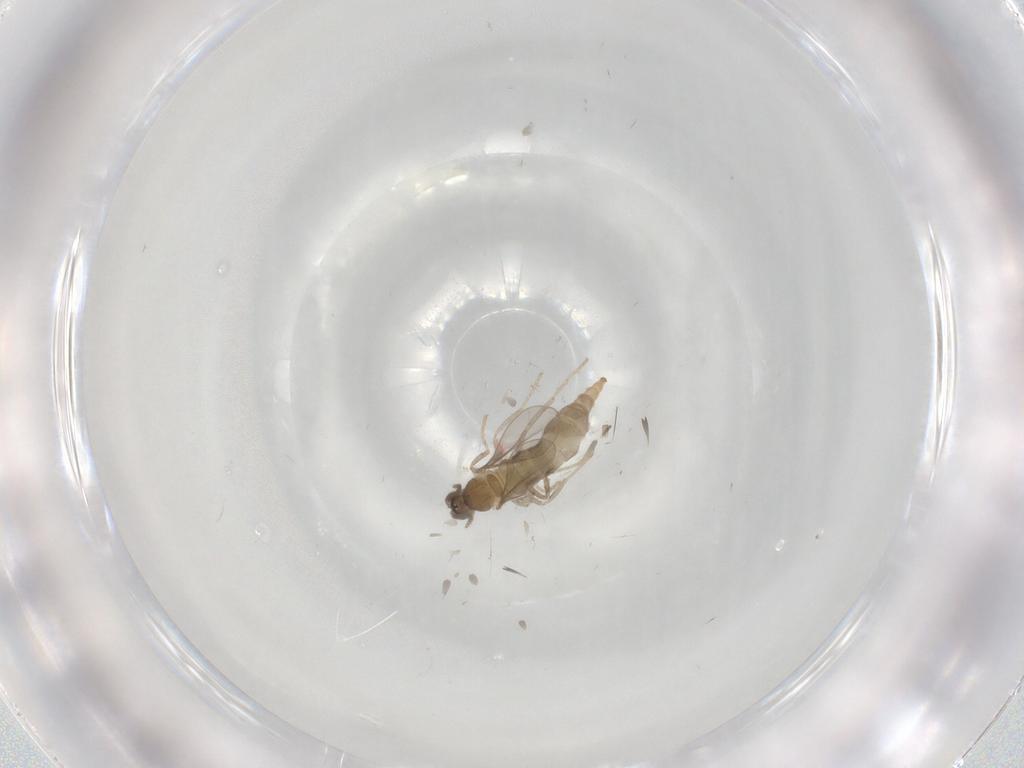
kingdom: Animalia
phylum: Arthropoda
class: Insecta
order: Diptera
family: Cecidomyiidae
